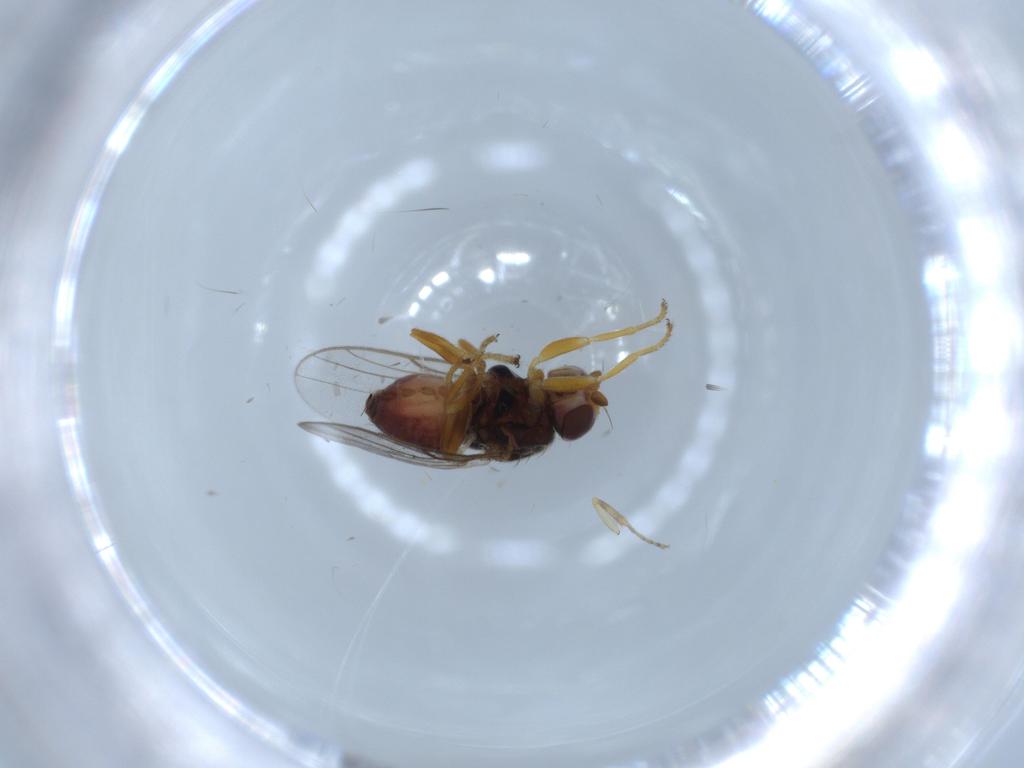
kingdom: Animalia
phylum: Arthropoda
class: Insecta
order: Diptera
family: Chloropidae
